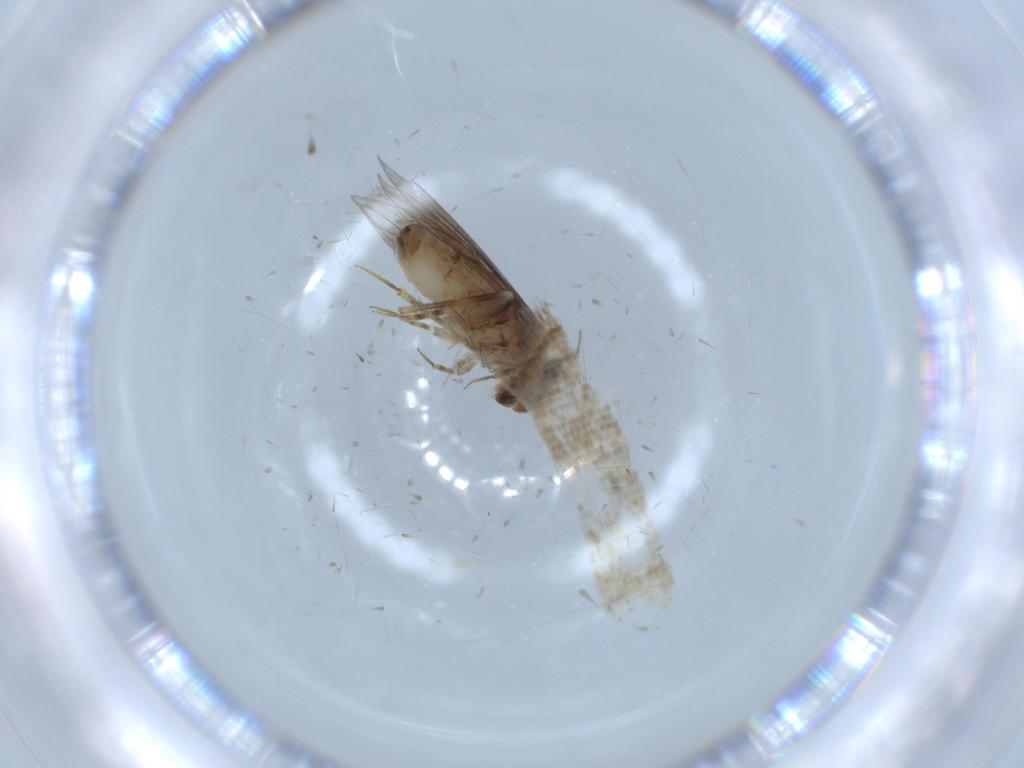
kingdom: Animalia
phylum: Arthropoda
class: Insecta
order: Psocodea
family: Lepidopsocidae
